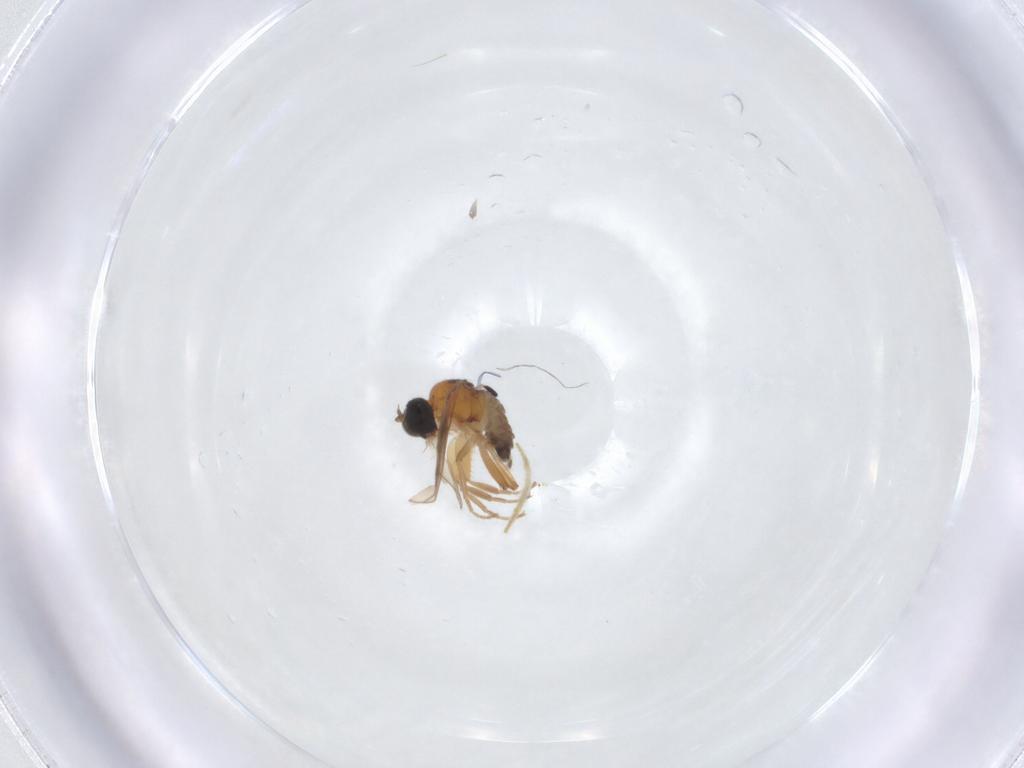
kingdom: Animalia
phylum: Arthropoda
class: Insecta
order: Diptera
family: Hybotidae
